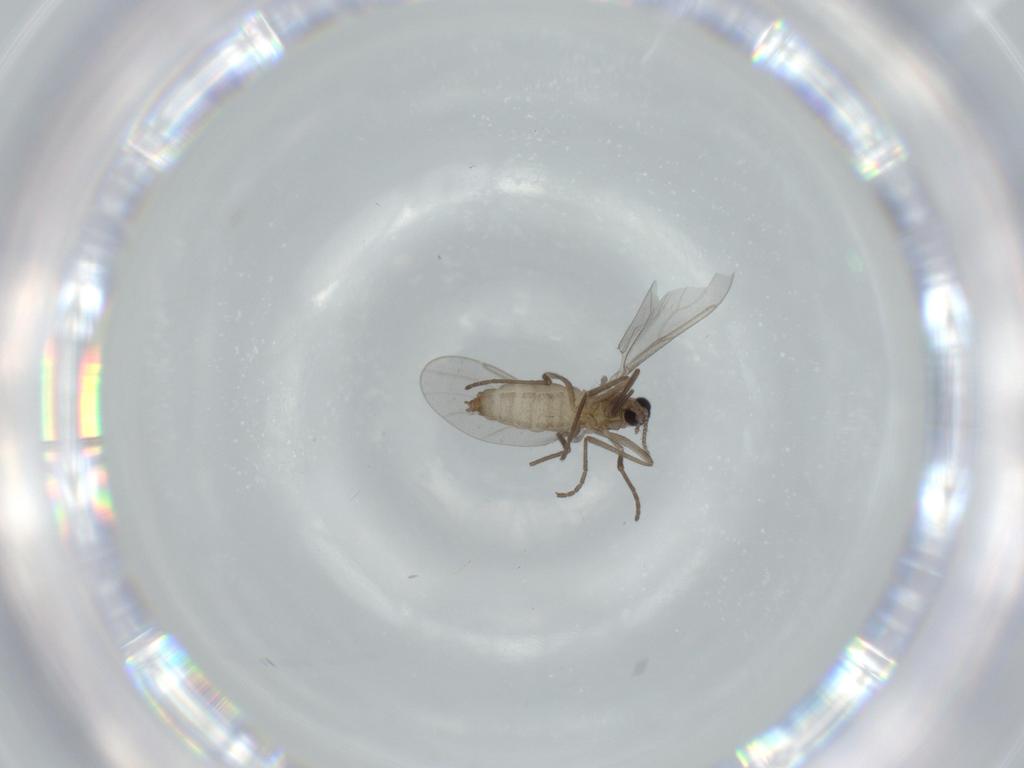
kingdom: Animalia
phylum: Arthropoda
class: Insecta
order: Diptera
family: Cecidomyiidae
